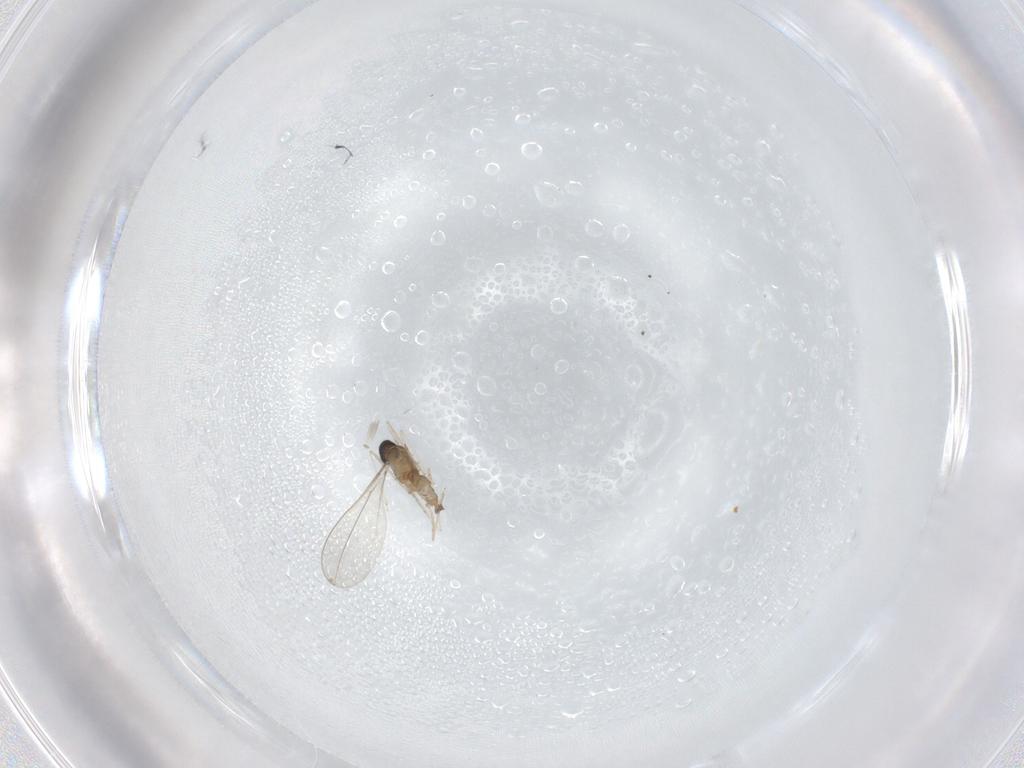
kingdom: Animalia
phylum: Arthropoda
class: Insecta
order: Diptera
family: Cecidomyiidae
